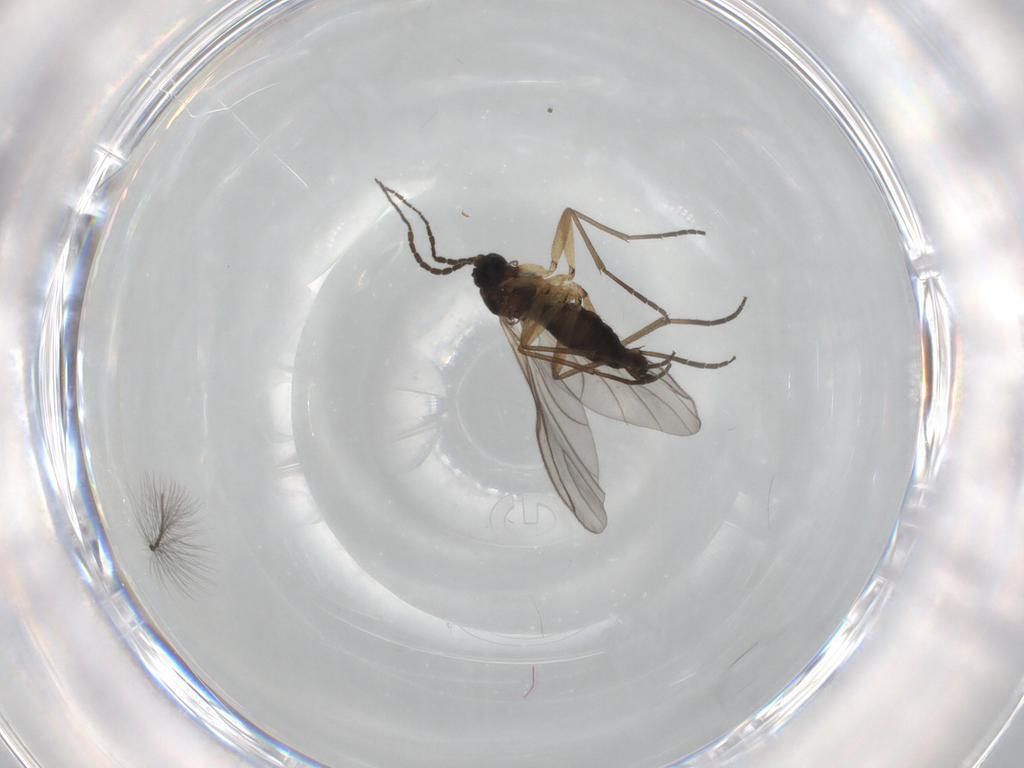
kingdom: Animalia
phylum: Arthropoda
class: Insecta
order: Diptera
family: Sciaridae
